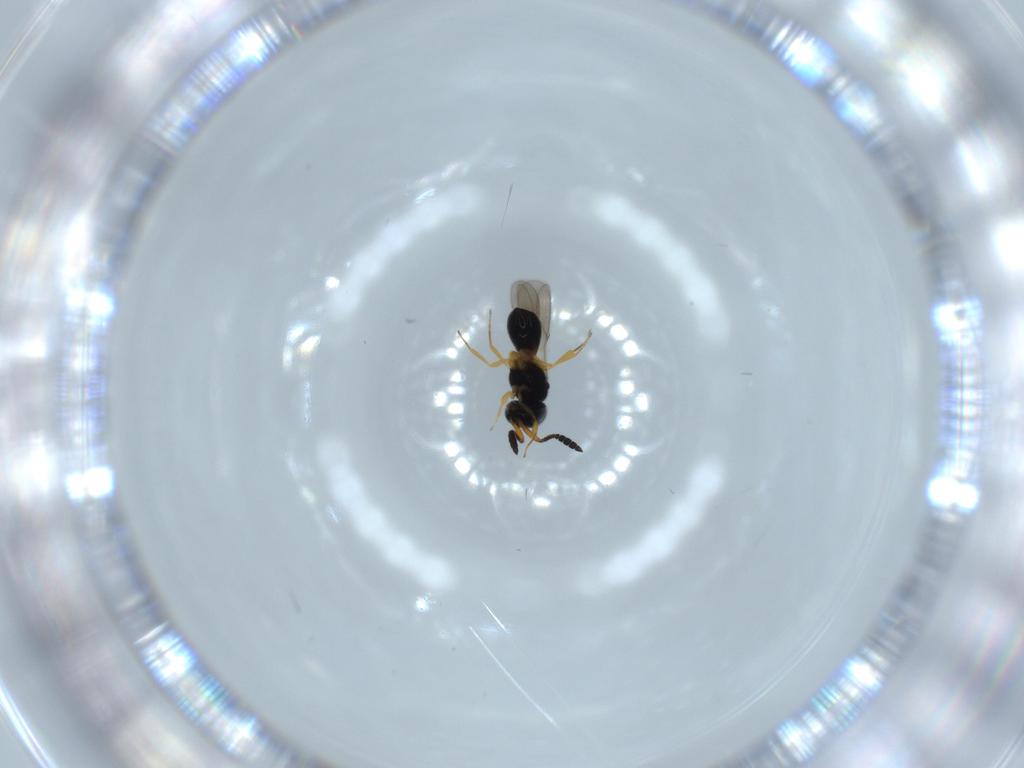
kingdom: Animalia
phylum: Arthropoda
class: Insecta
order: Hymenoptera
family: Scelionidae
